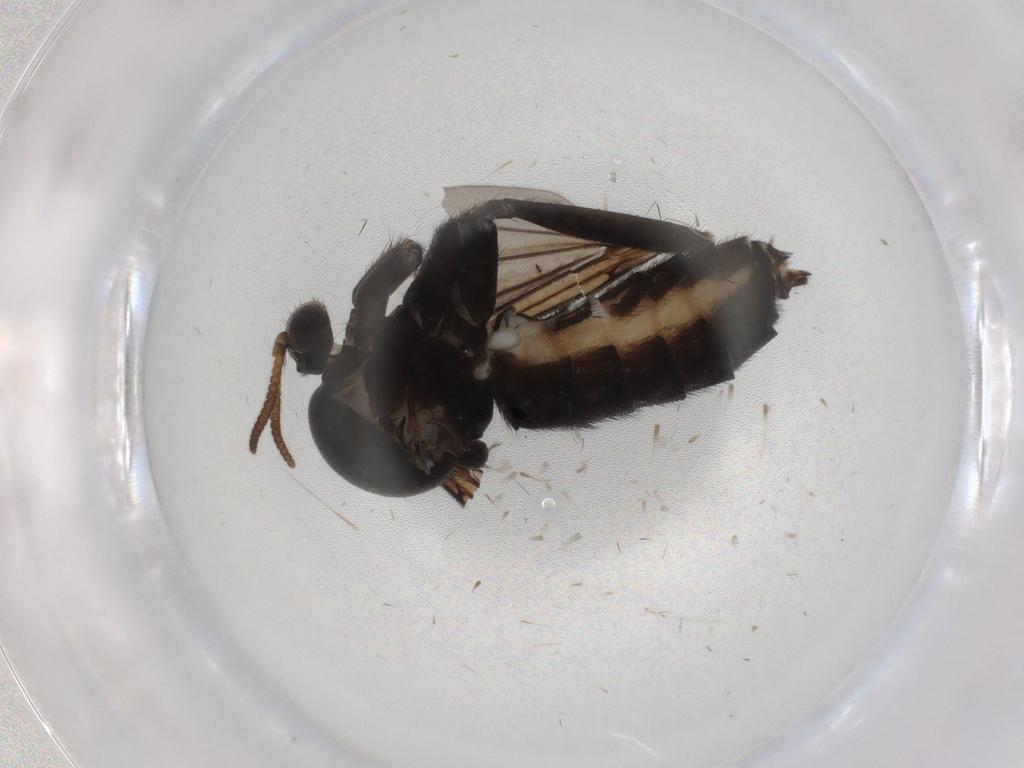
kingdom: Animalia
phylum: Arthropoda
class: Insecta
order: Diptera
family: Mycetophilidae
